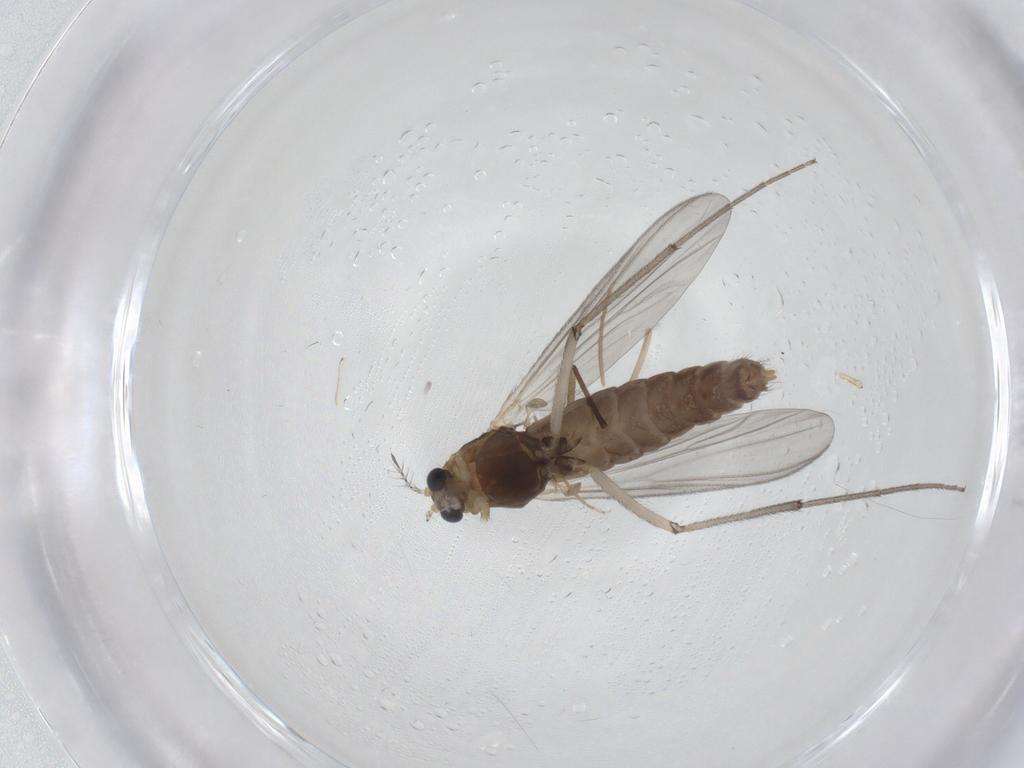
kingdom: Animalia
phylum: Arthropoda
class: Insecta
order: Diptera
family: Chironomidae
